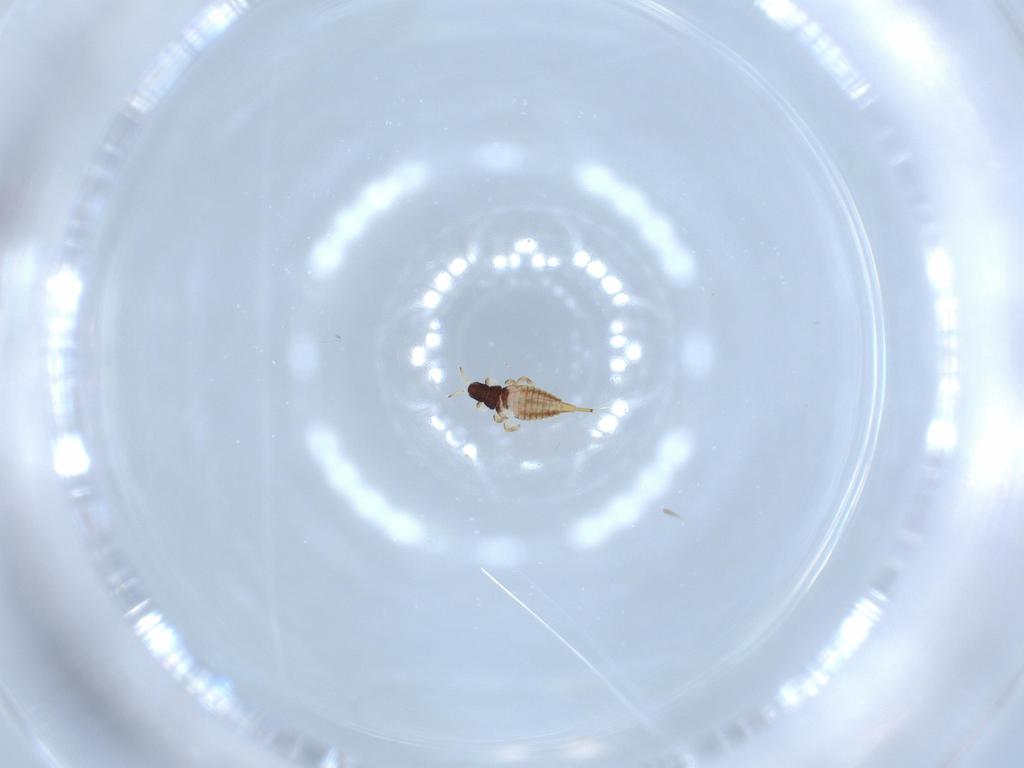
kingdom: Animalia
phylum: Arthropoda
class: Insecta
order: Thysanoptera
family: Phlaeothripidae
